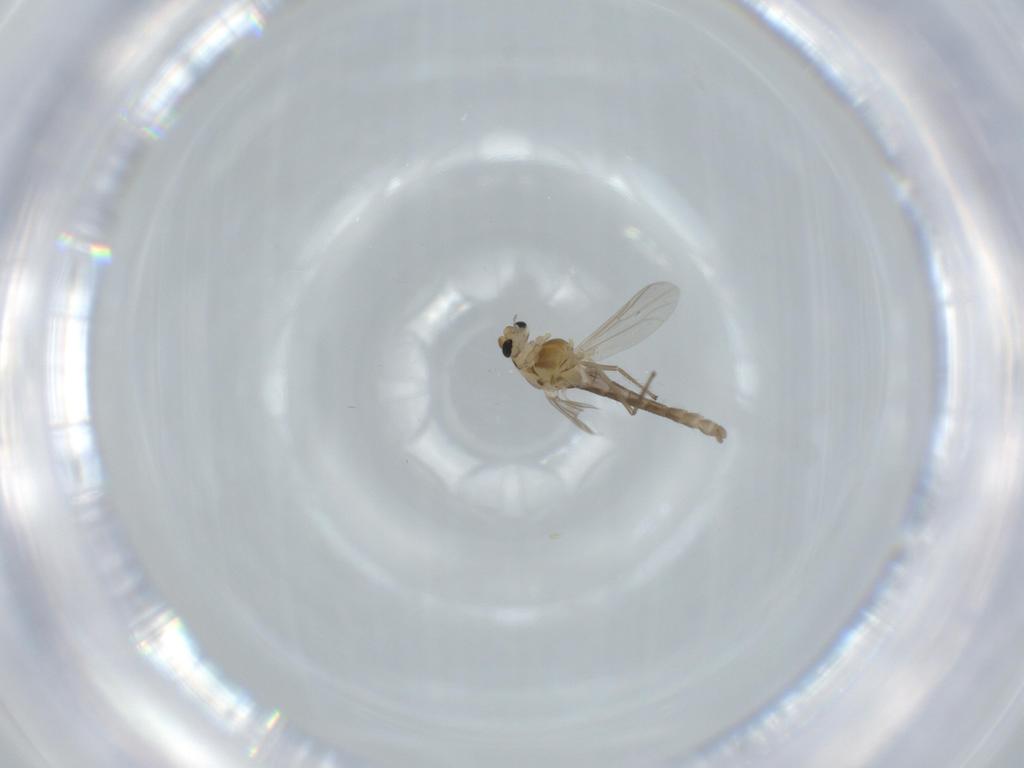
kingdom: Animalia
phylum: Arthropoda
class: Insecta
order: Diptera
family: Chironomidae
